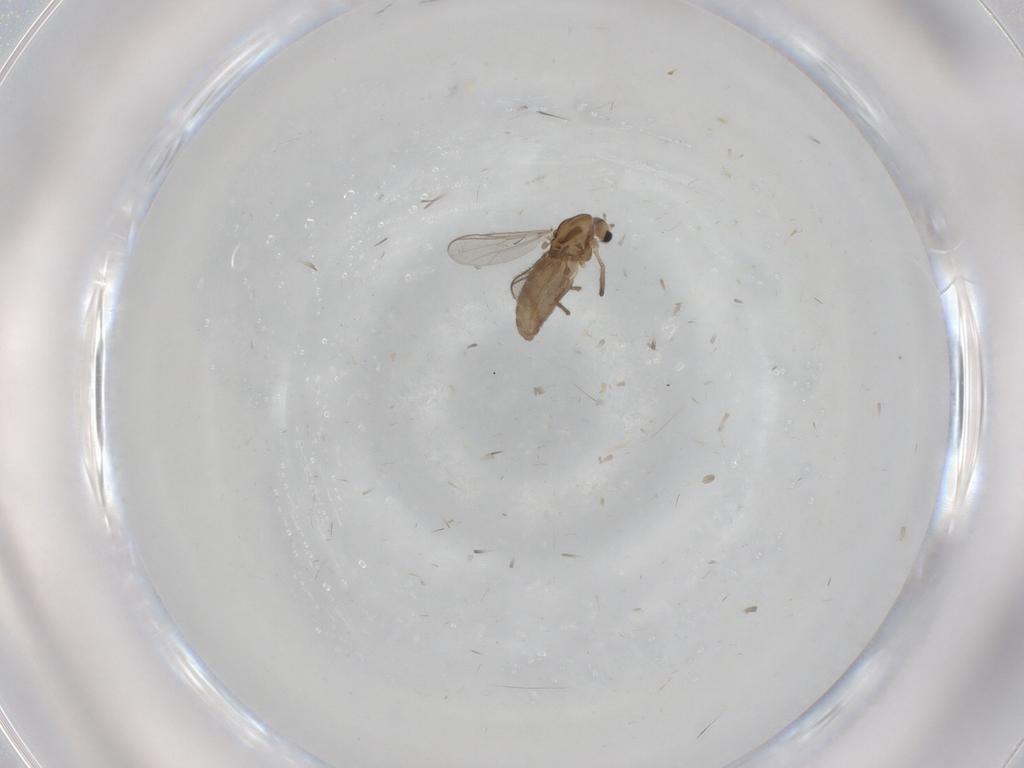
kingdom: Animalia
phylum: Arthropoda
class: Insecta
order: Diptera
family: Chironomidae
